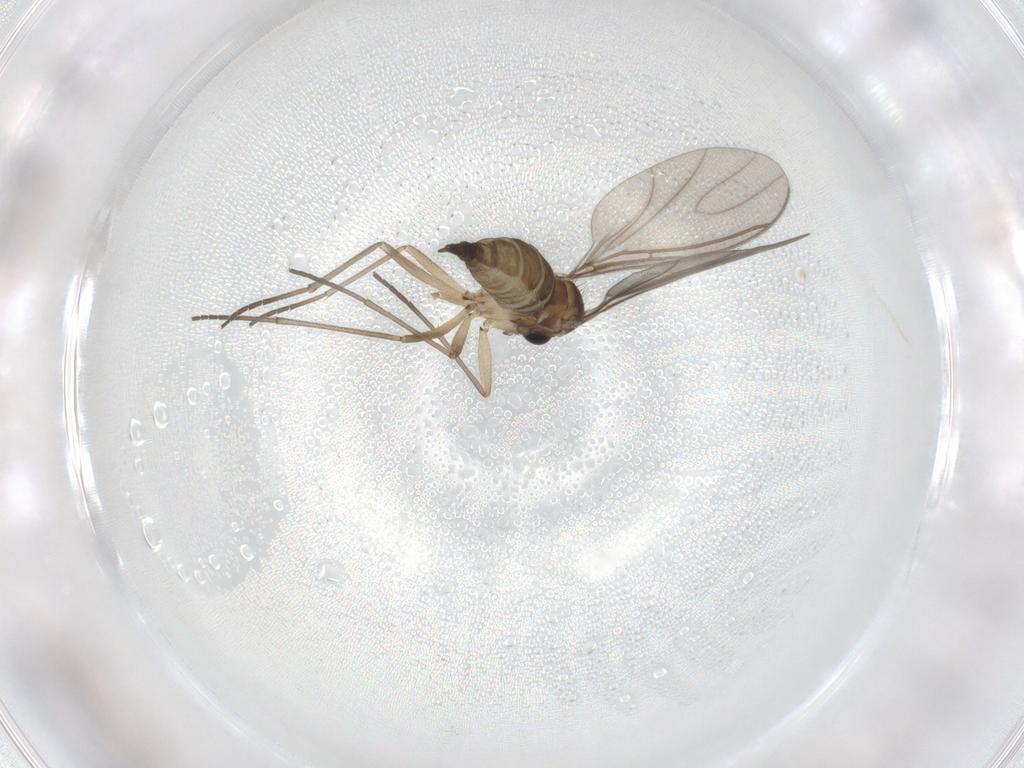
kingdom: Animalia
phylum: Arthropoda
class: Insecta
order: Diptera
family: Sciaridae
